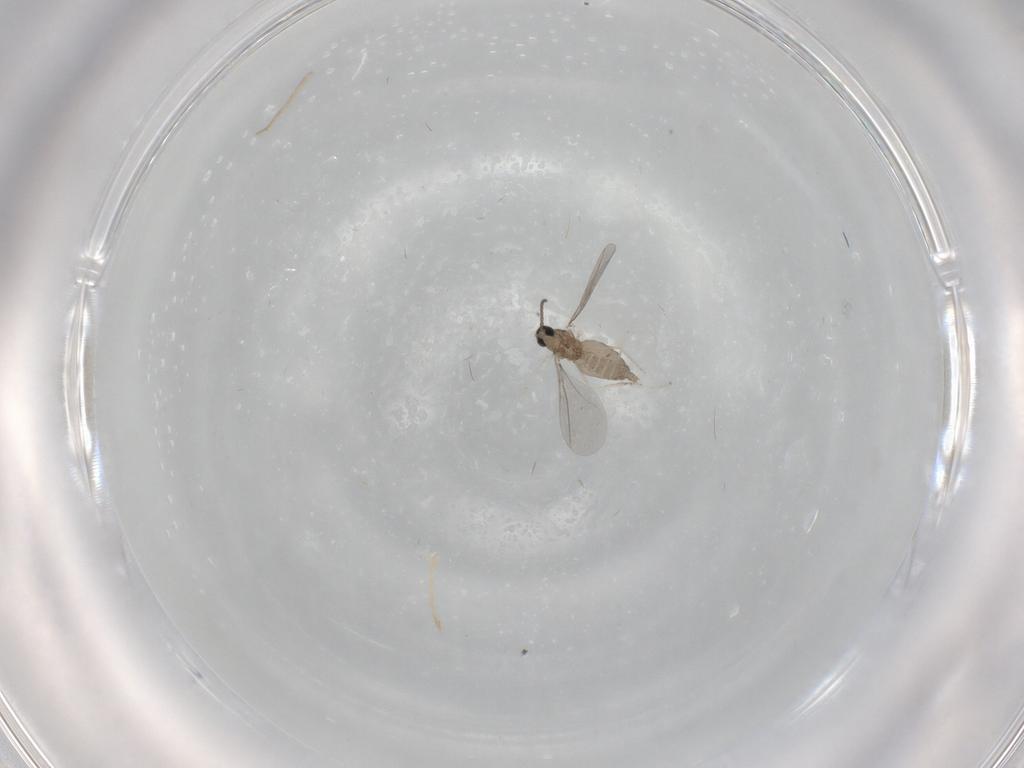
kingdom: Animalia
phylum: Arthropoda
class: Insecta
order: Diptera
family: Cecidomyiidae
